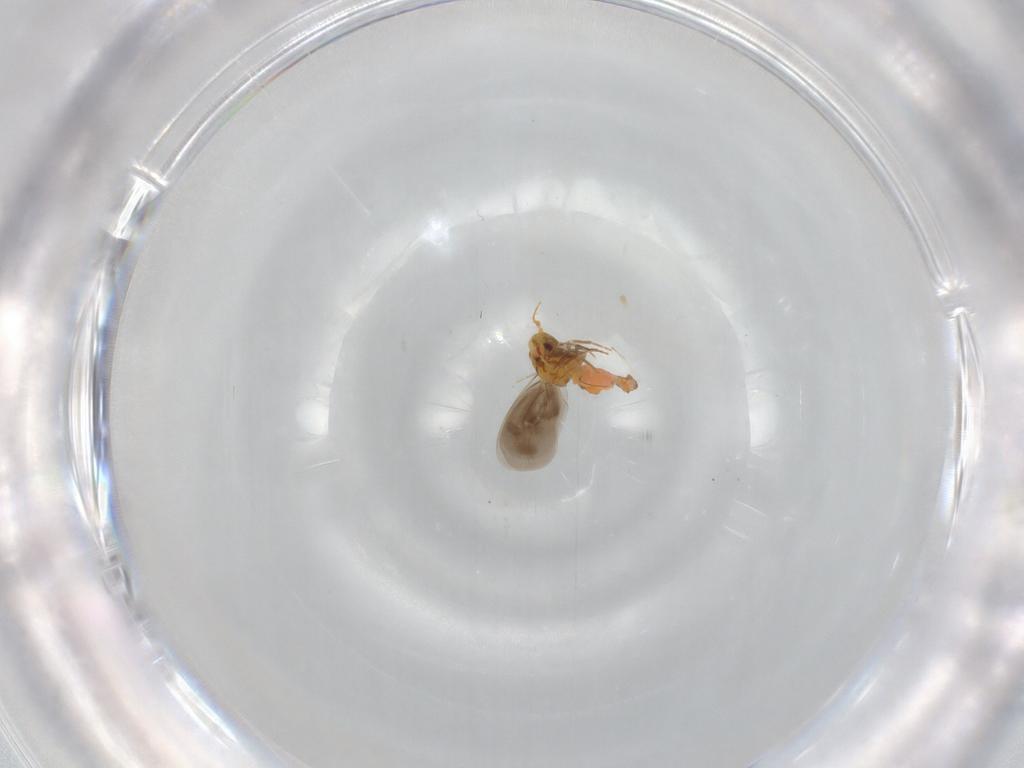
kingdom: Animalia
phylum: Arthropoda
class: Insecta
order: Hemiptera
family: Aleyrodidae
